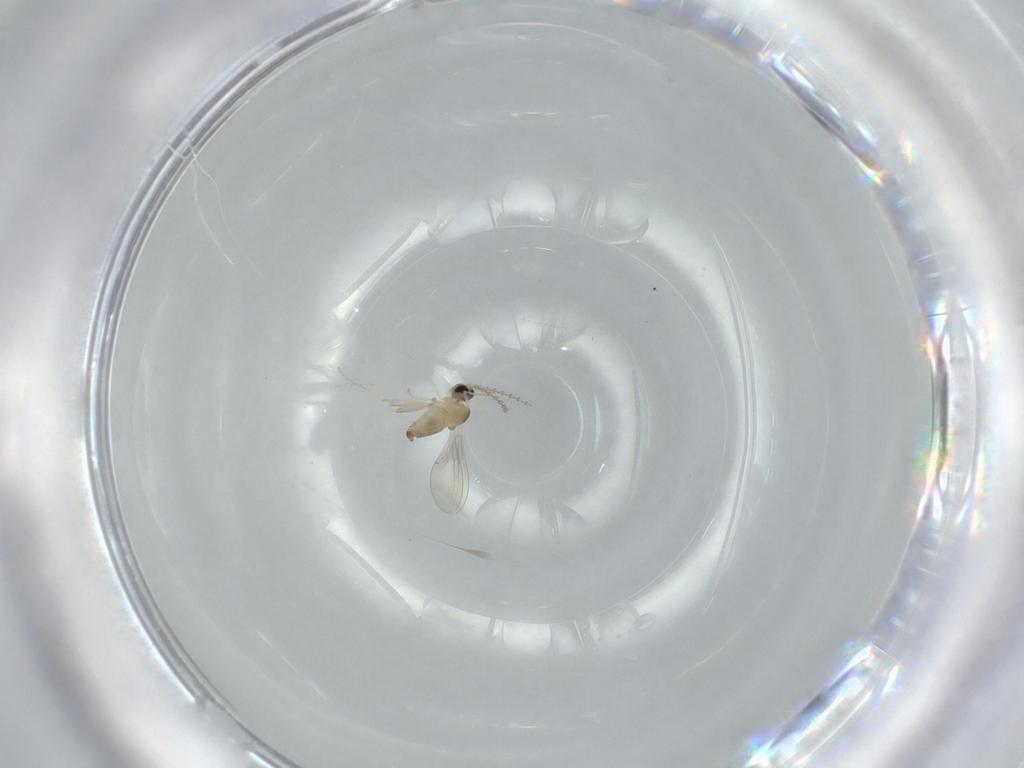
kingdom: Animalia
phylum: Arthropoda
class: Insecta
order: Diptera
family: Cecidomyiidae
